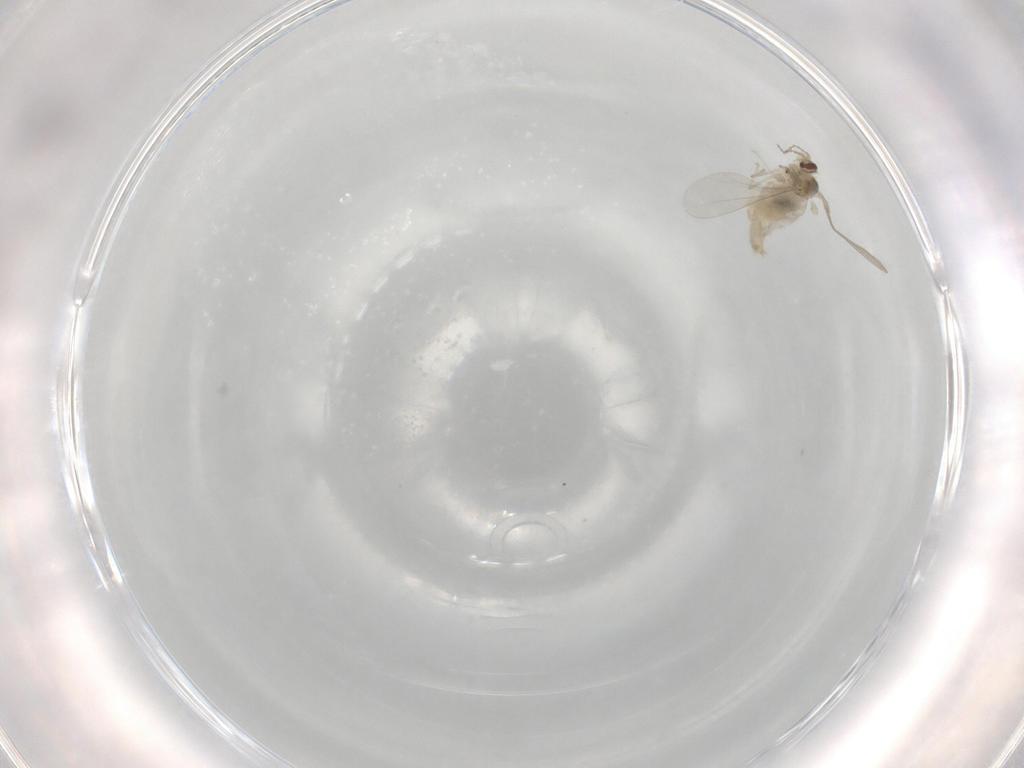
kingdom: Animalia
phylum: Arthropoda
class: Insecta
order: Diptera
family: Cecidomyiidae
